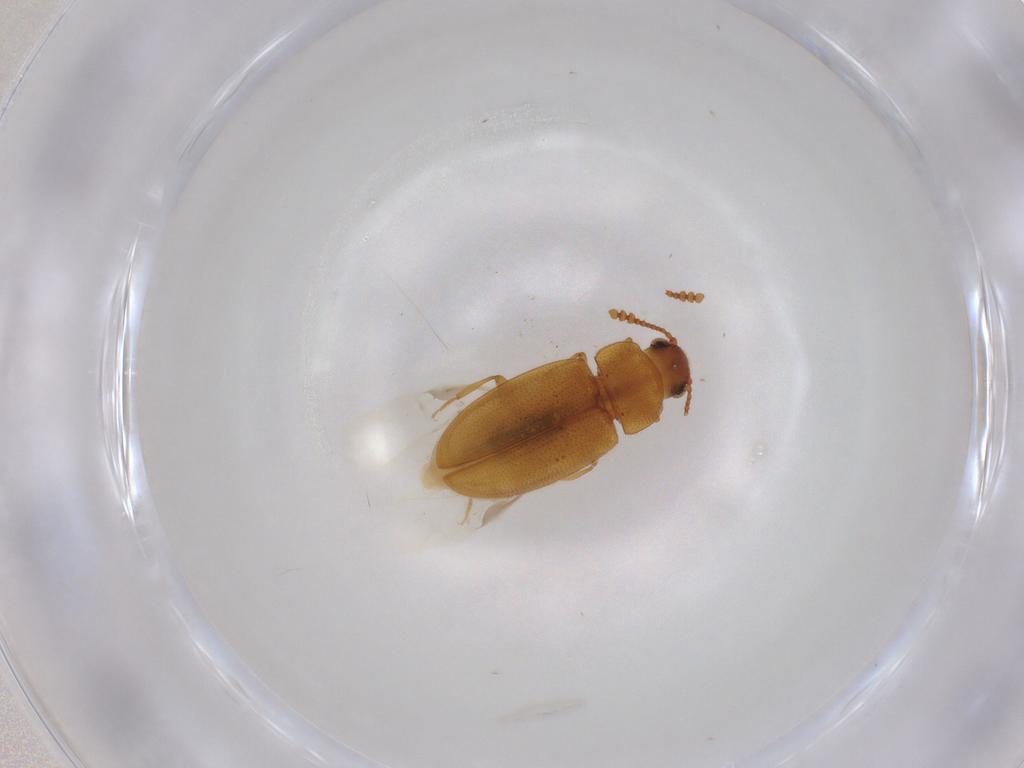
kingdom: Animalia
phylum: Arthropoda
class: Insecta
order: Coleoptera
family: Erotylidae
